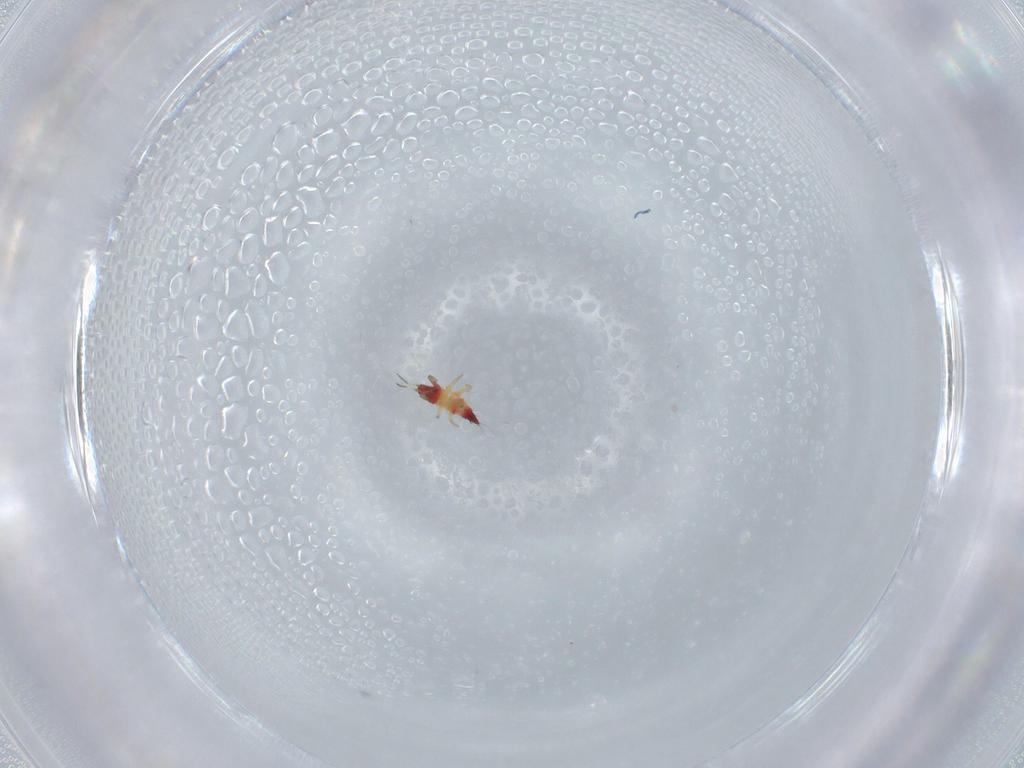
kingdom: Animalia
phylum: Arthropoda
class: Insecta
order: Thysanoptera
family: Phlaeothripidae
